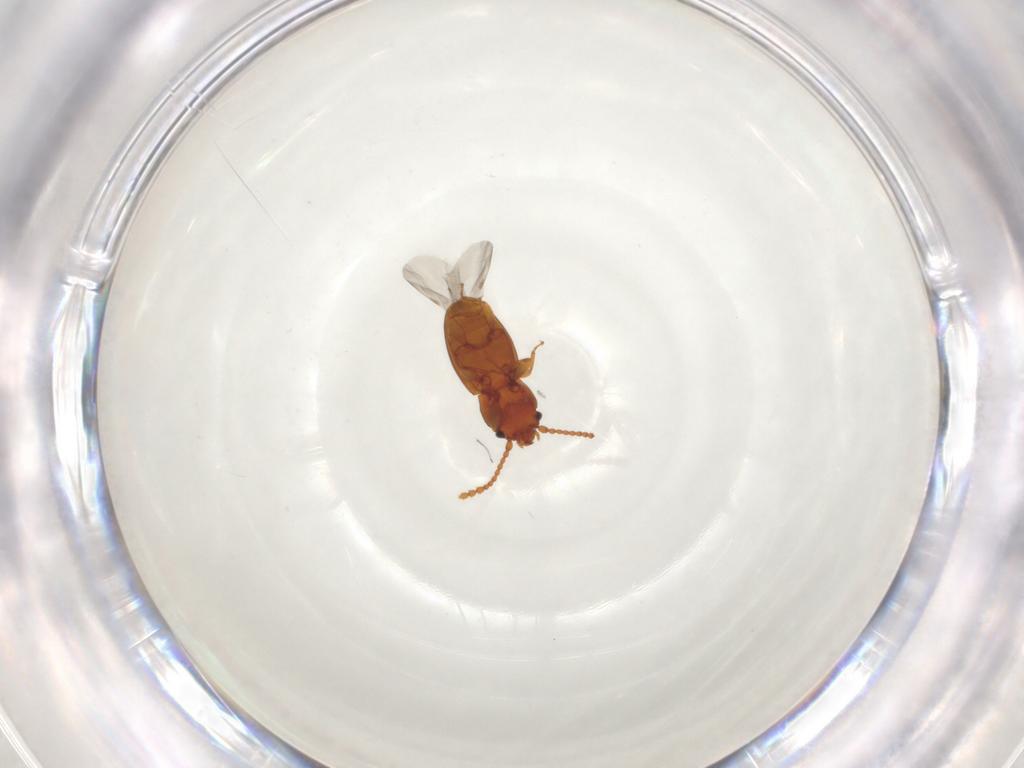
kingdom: Animalia
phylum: Arthropoda
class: Insecta
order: Coleoptera
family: Laemophloeidae
